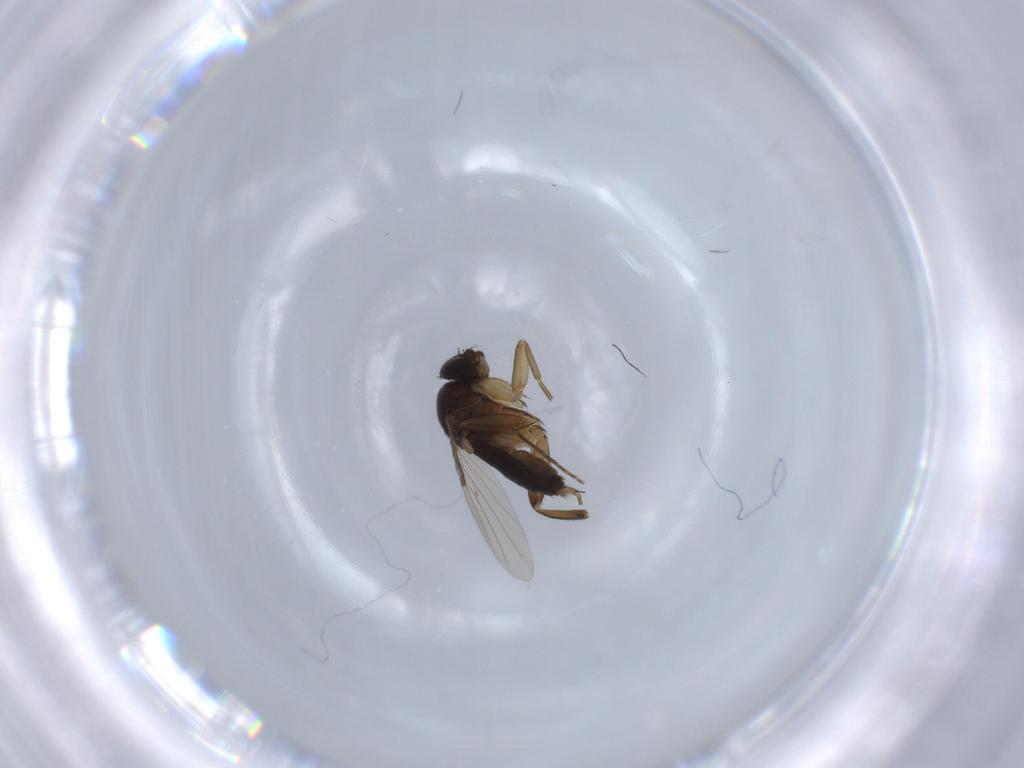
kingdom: Animalia
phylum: Arthropoda
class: Insecta
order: Diptera
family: Phoridae
